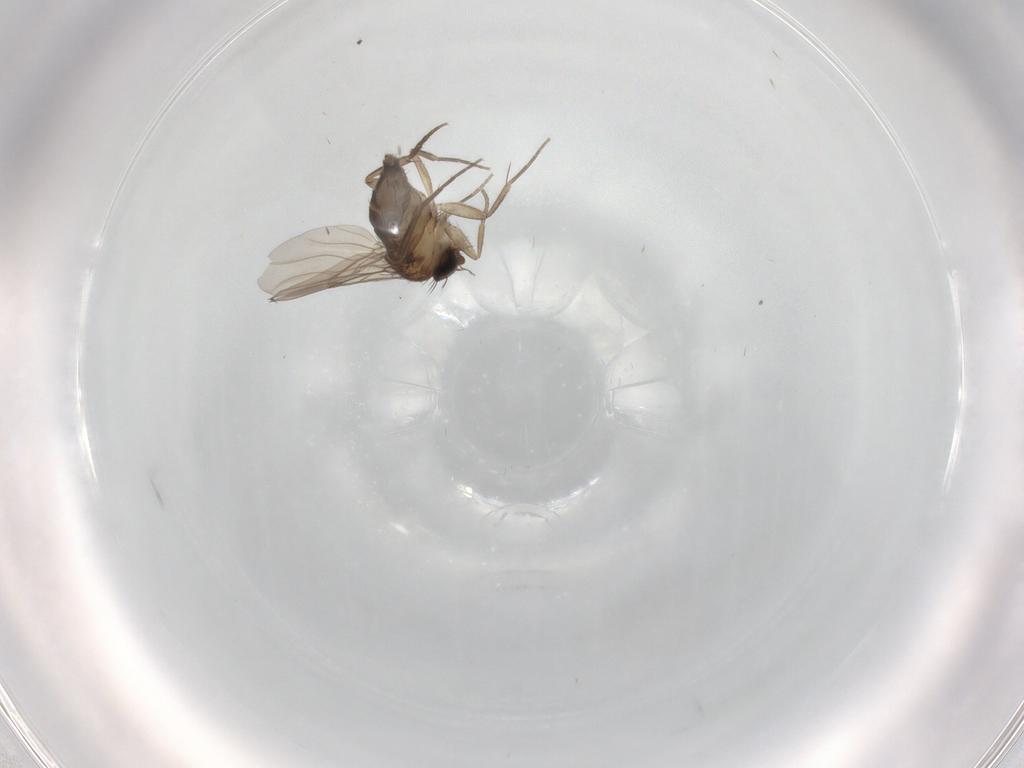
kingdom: Animalia
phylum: Arthropoda
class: Insecta
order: Diptera
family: Phoridae
